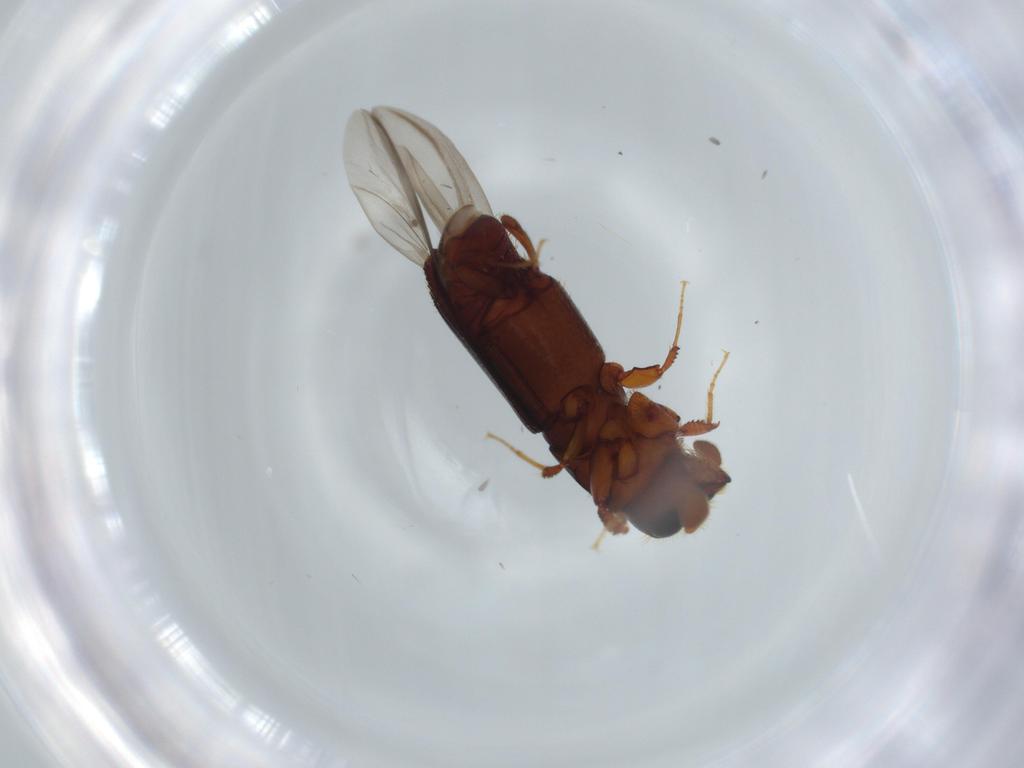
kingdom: Animalia
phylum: Arthropoda
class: Insecta
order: Coleoptera
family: Curculionidae
